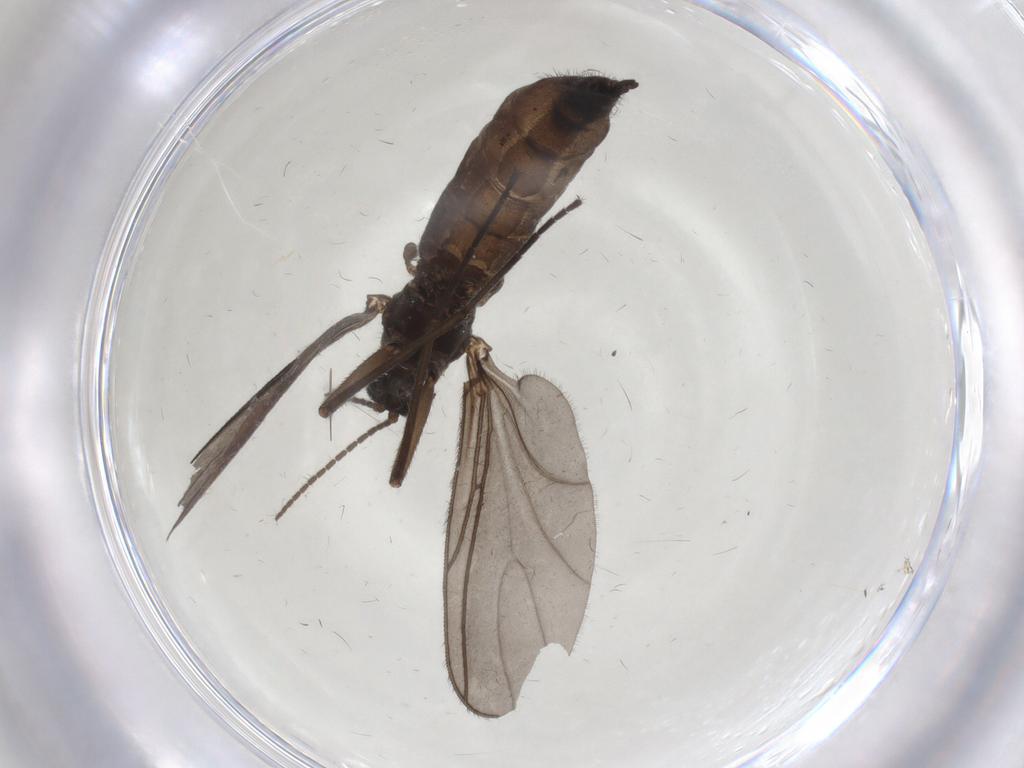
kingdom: Animalia
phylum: Arthropoda
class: Insecta
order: Diptera
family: Sciaridae
